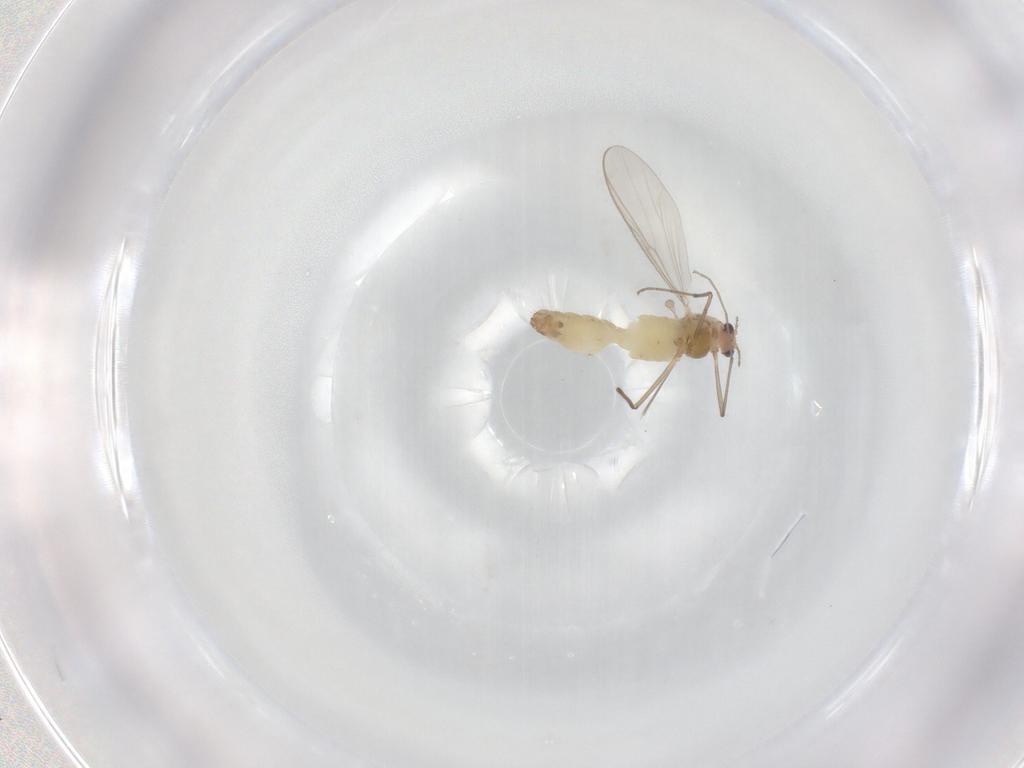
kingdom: Animalia
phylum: Arthropoda
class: Insecta
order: Diptera
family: Chironomidae
